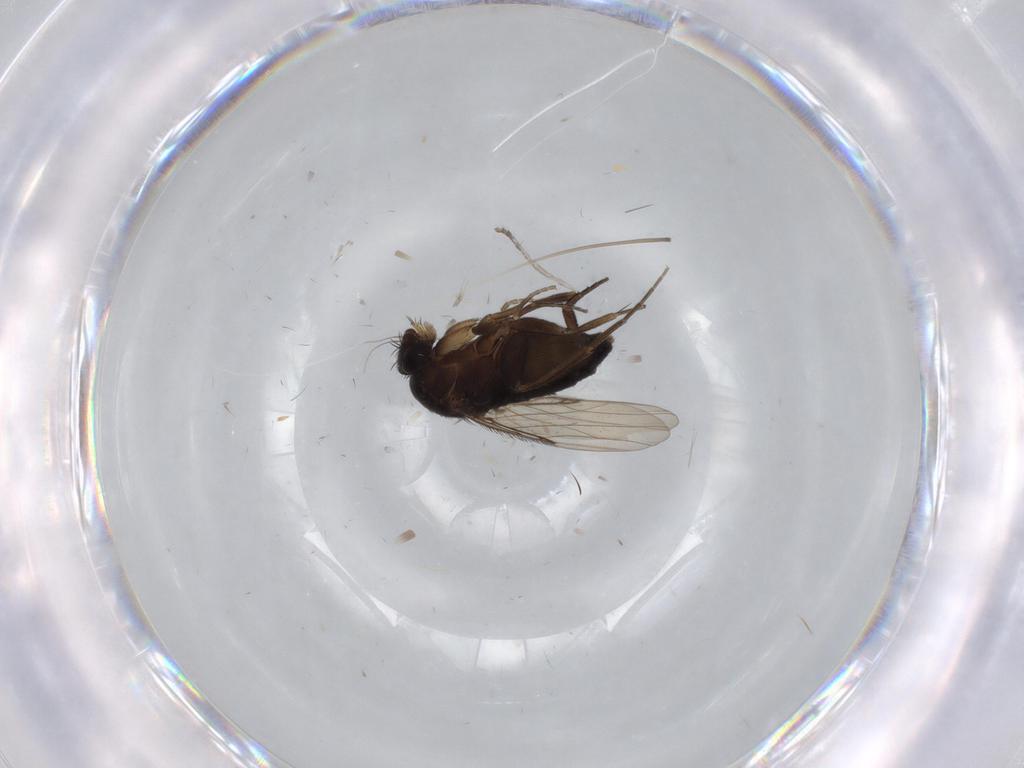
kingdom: Animalia
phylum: Arthropoda
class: Insecta
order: Diptera
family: Phoridae
